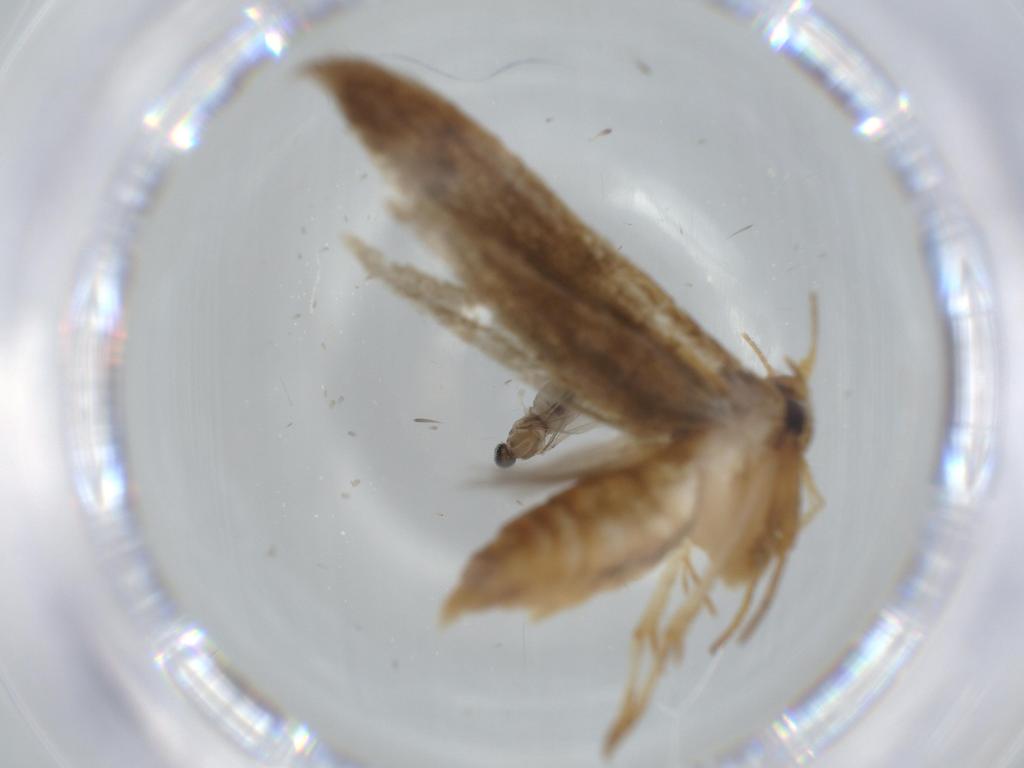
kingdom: Animalia
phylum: Arthropoda
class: Insecta
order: Lepidoptera
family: Blastobasidae
